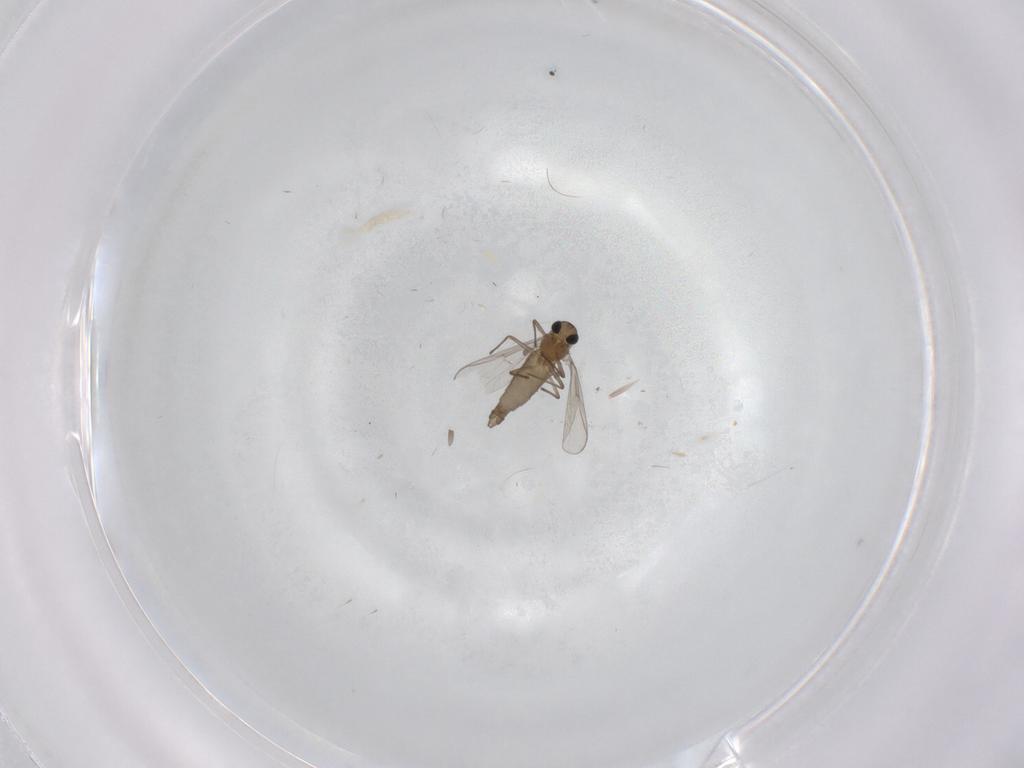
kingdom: Animalia
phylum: Arthropoda
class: Insecta
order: Diptera
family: Chironomidae
